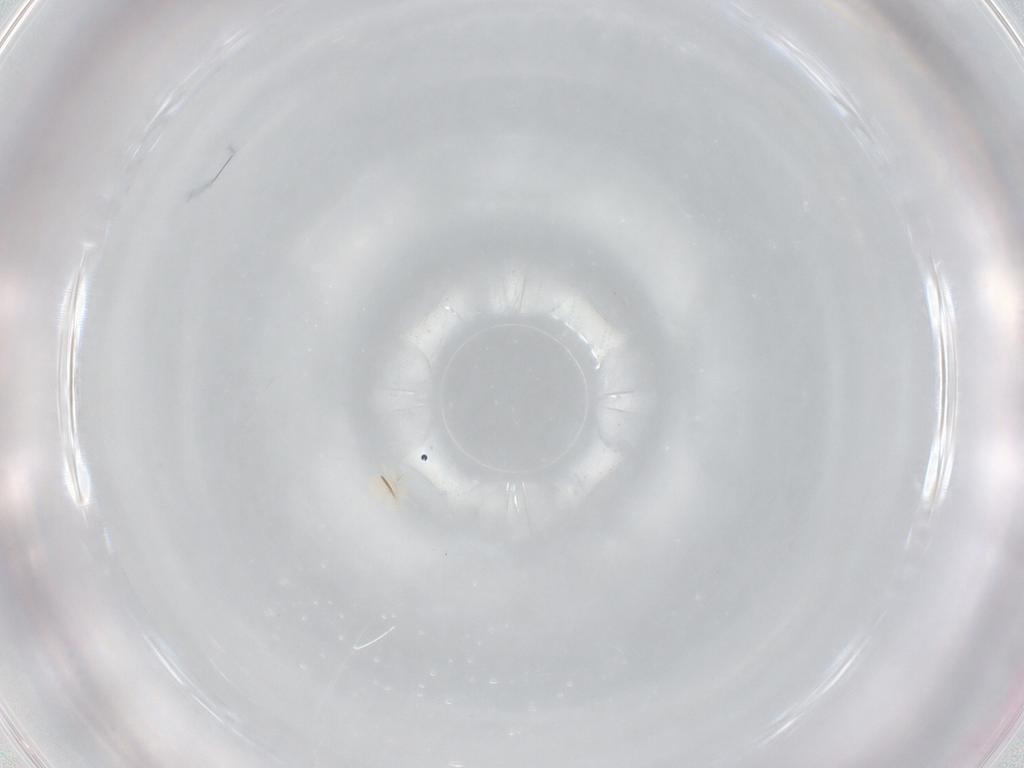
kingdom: Animalia
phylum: Arthropoda
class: Arachnida
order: Trombidiformes
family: Anystidae
